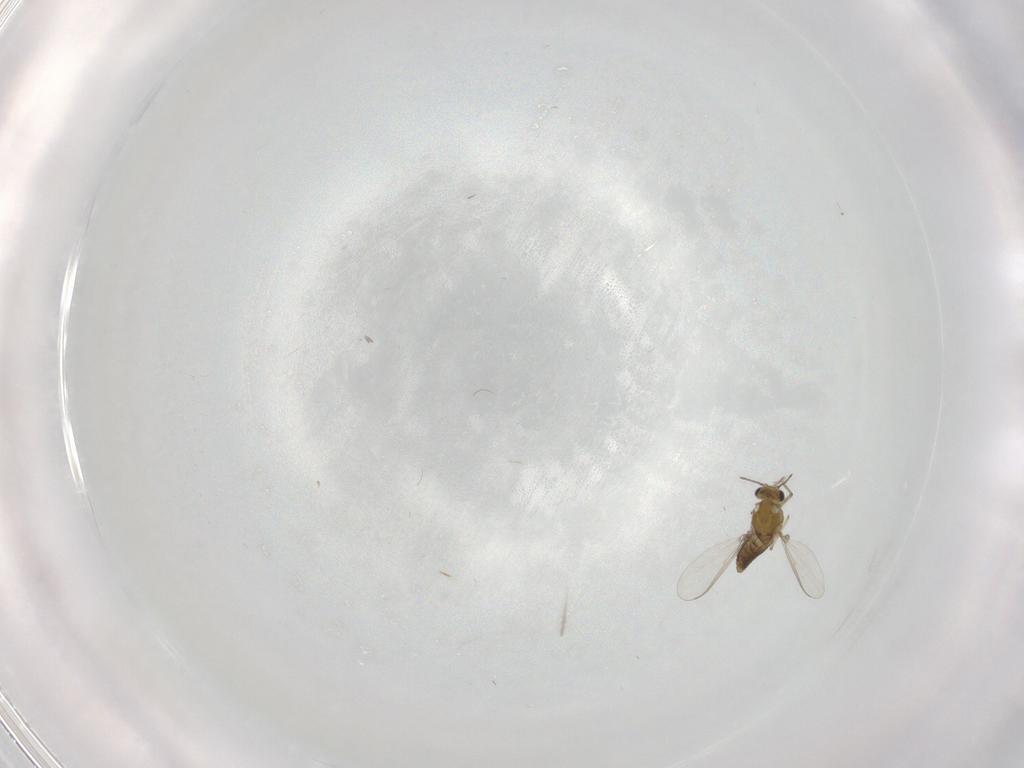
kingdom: Animalia
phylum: Arthropoda
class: Insecta
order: Diptera
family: Chironomidae
